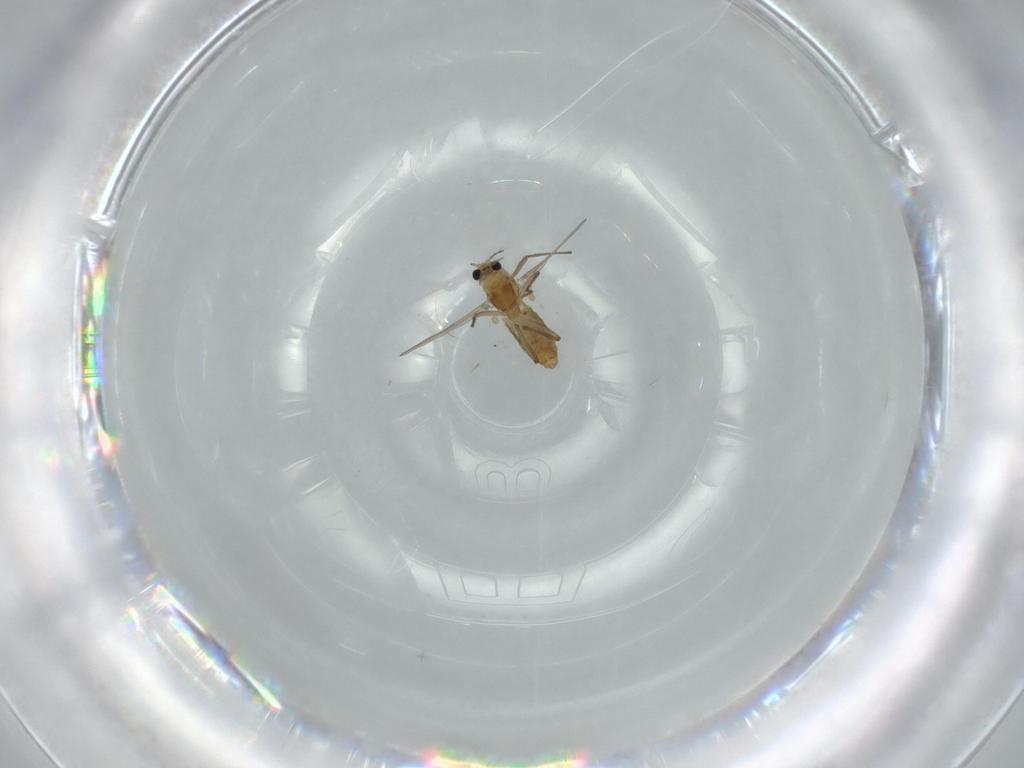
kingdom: Animalia
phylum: Arthropoda
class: Insecta
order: Diptera
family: Chironomidae
